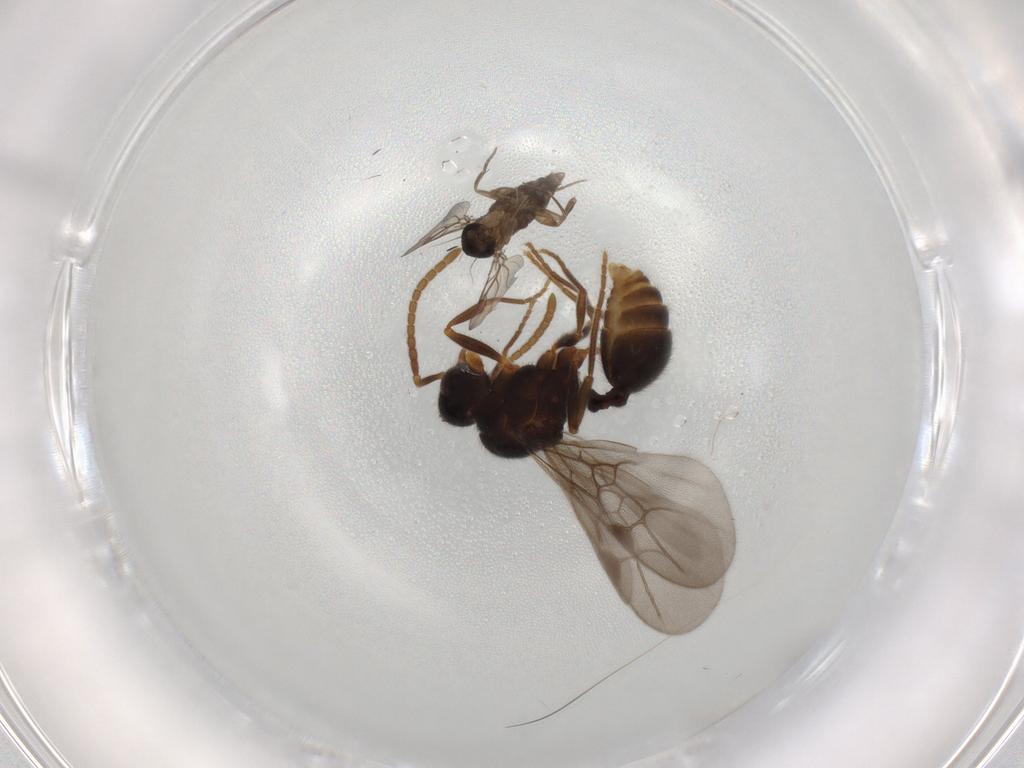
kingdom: Animalia
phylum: Arthropoda
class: Insecta
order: Diptera
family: Phoridae
